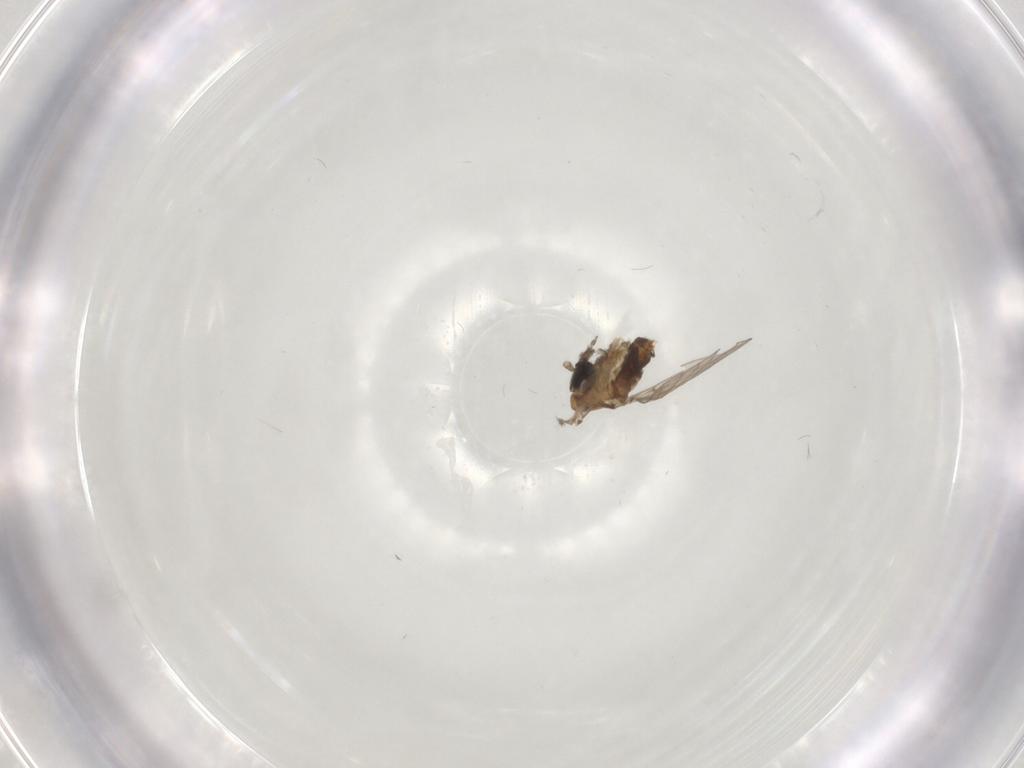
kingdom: Animalia
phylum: Arthropoda
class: Insecta
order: Diptera
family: Psychodidae
